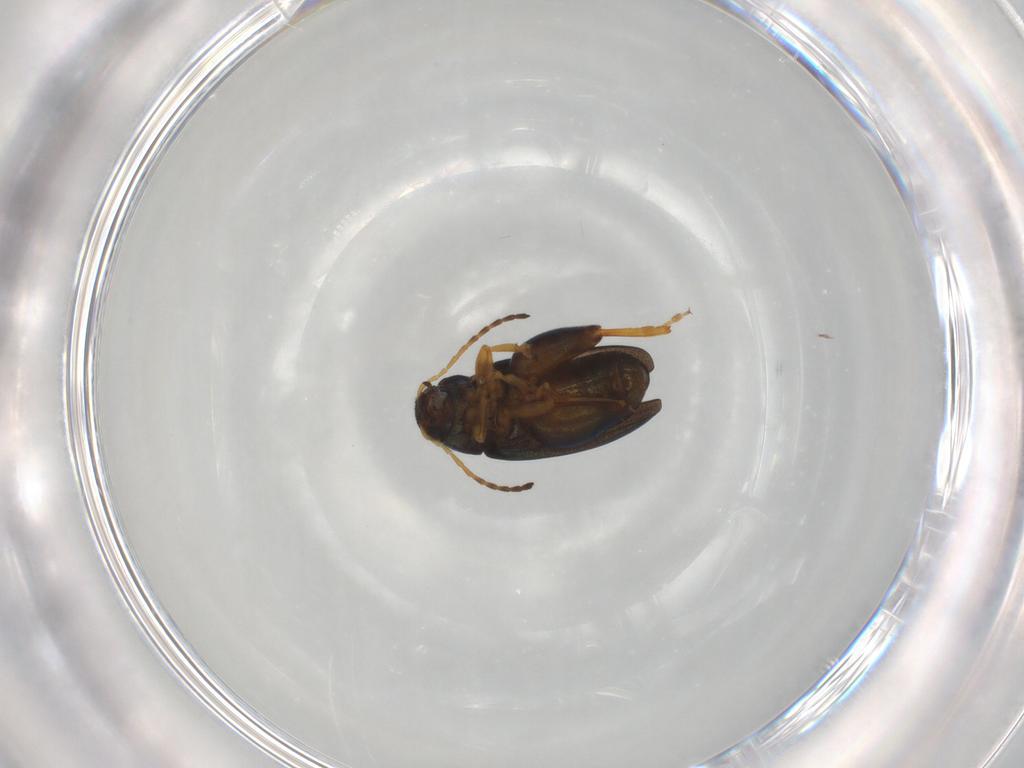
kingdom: Animalia
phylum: Arthropoda
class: Insecta
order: Coleoptera
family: Chrysomelidae
